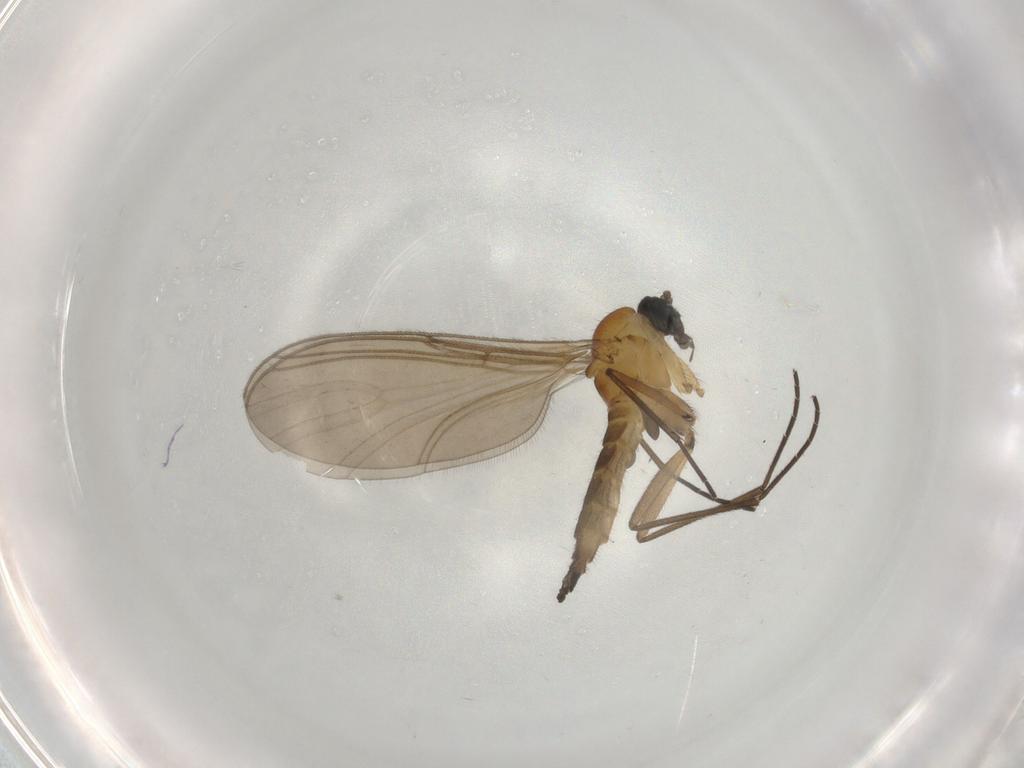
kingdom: Animalia
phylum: Arthropoda
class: Insecta
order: Diptera
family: Sciaridae
